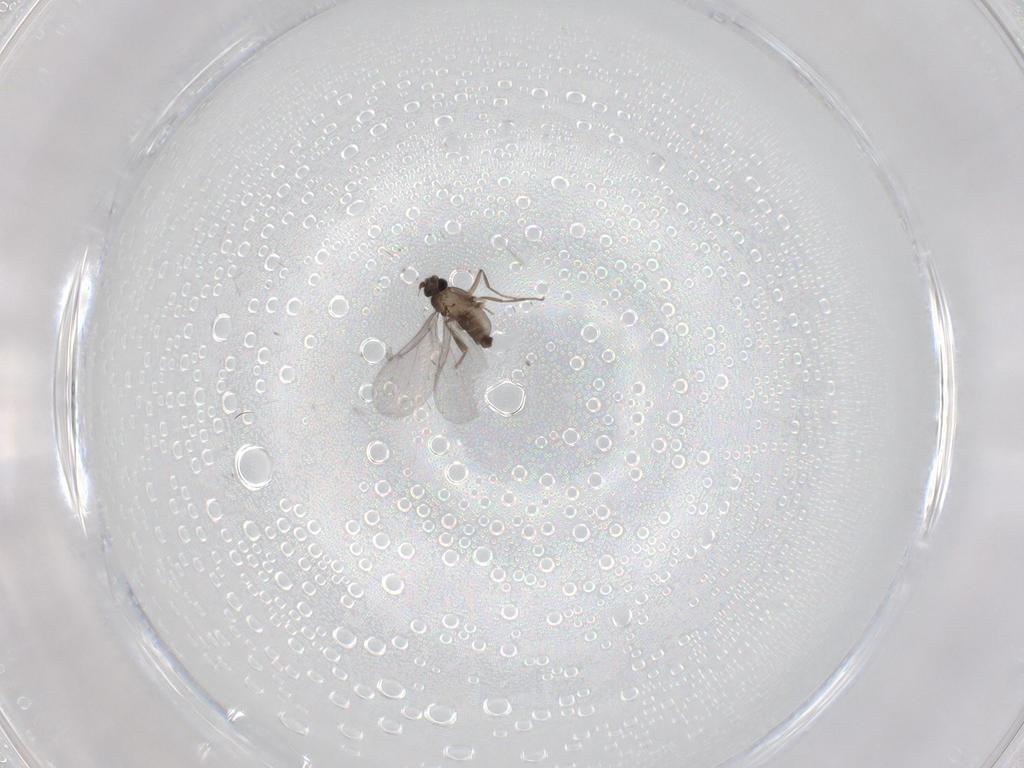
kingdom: Animalia
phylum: Arthropoda
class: Insecta
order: Diptera
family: Phoridae
